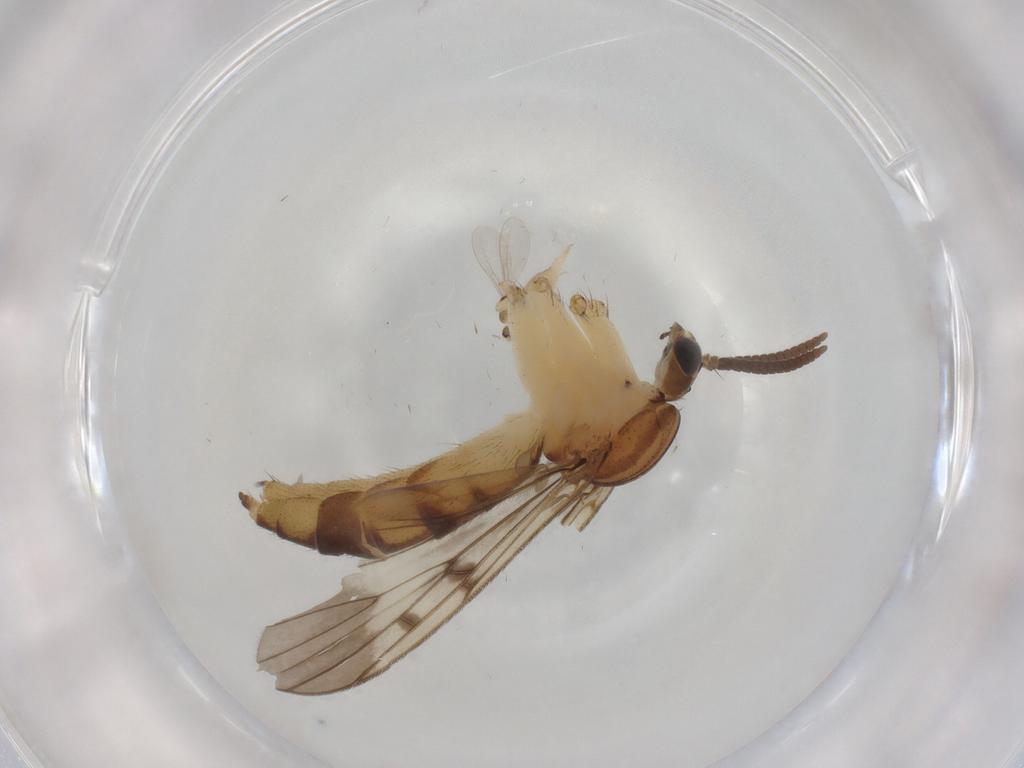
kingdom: Animalia
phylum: Arthropoda
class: Insecta
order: Diptera
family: Mycetophilidae
